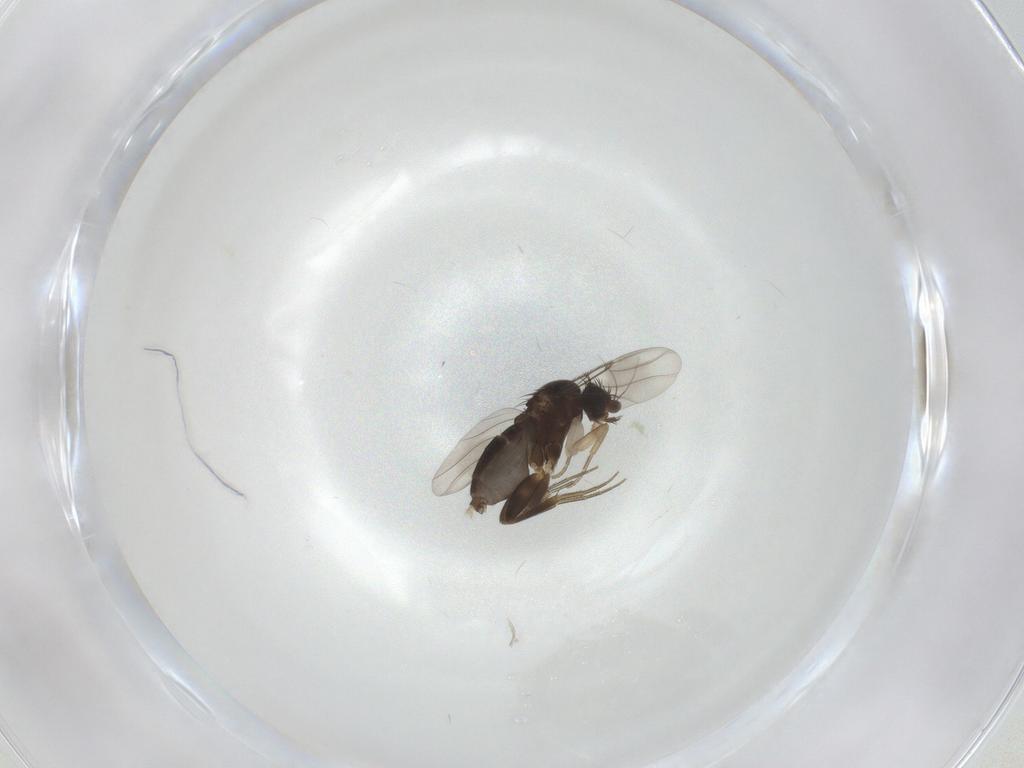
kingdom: Animalia
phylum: Arthropoda
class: Insecta
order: Diptera
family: Phoridae
